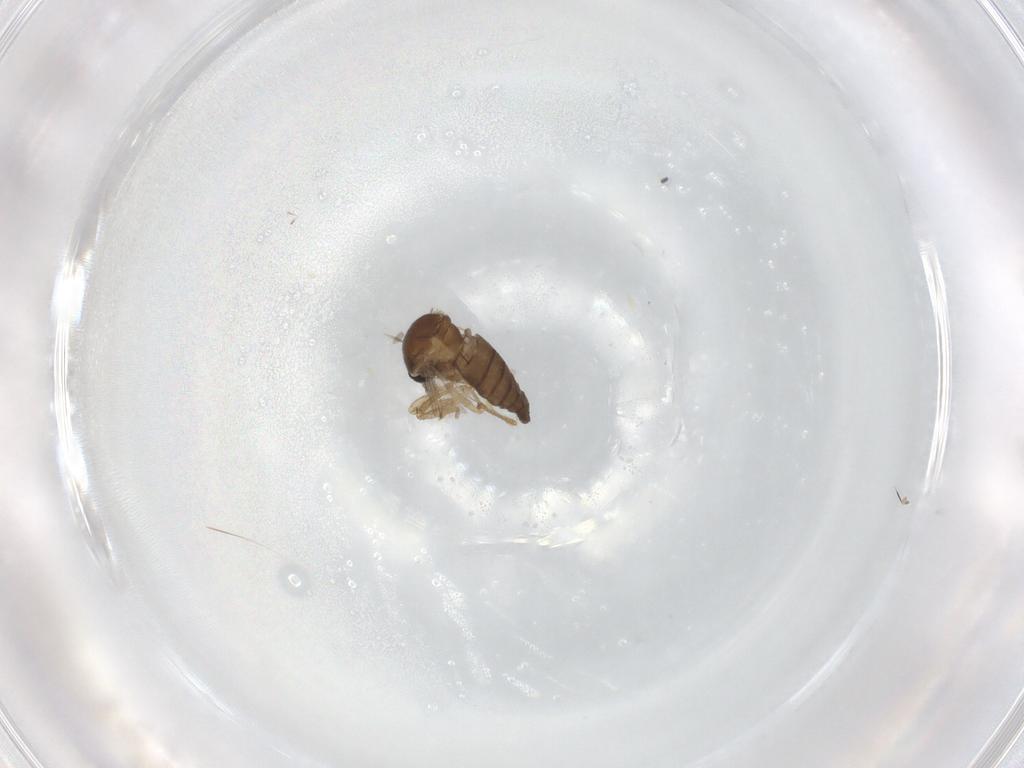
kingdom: Animalia
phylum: Arthropoda
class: Insecta
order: Diptera
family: Ceratopogonidae
